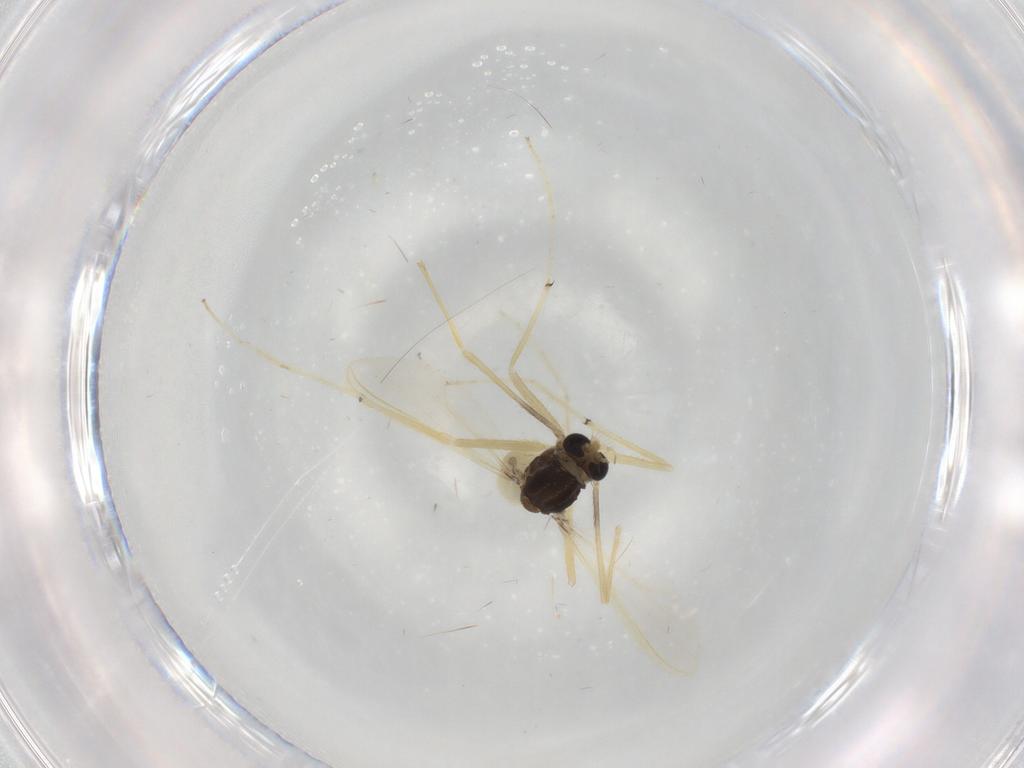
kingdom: Animalia
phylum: Arthropoda
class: Insecta
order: Diptera
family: Chironomidae
